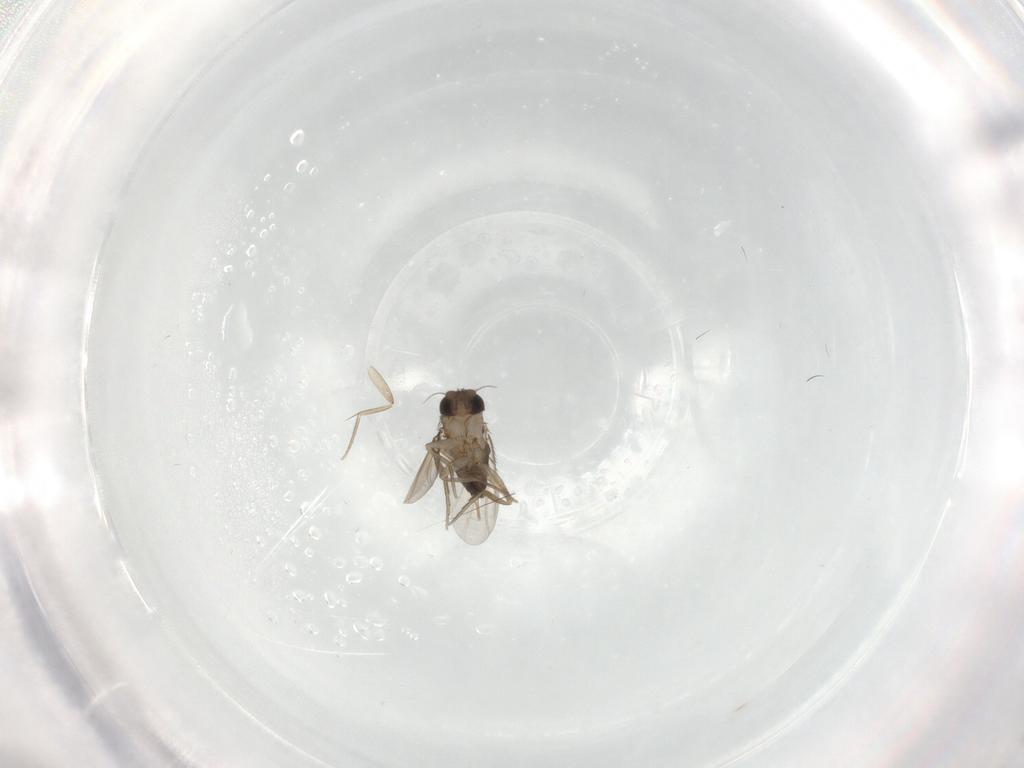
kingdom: Animalia
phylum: Arthropoda
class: Insecta
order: Diptera
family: Phoridae
